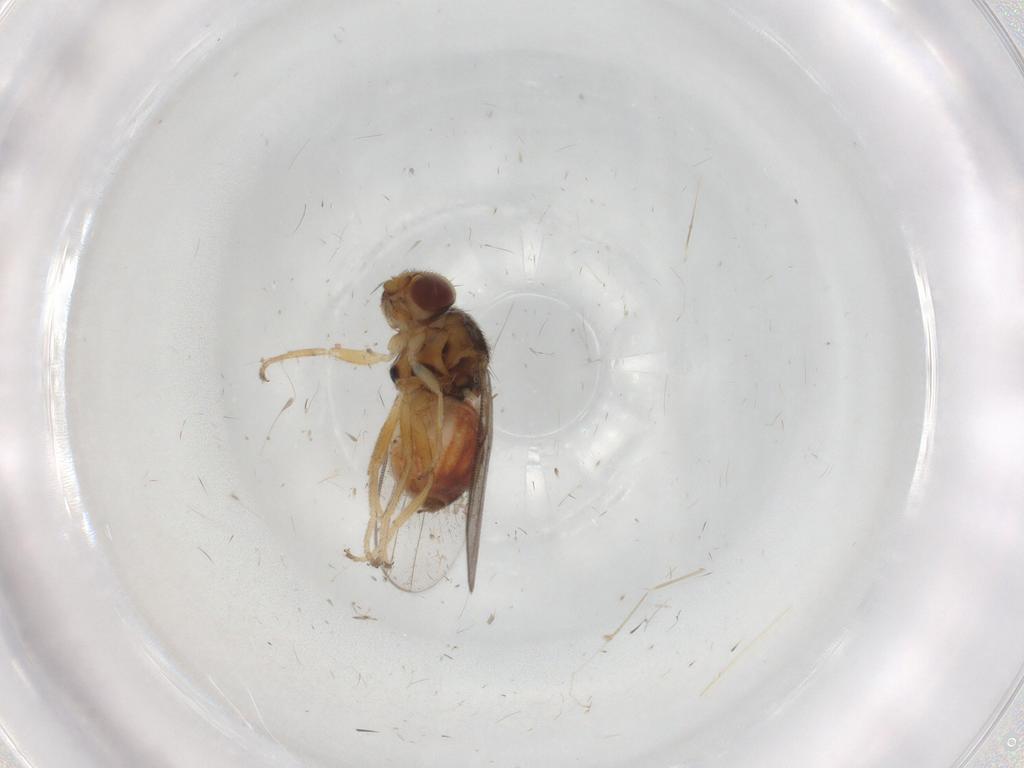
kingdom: Animalia
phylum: Arthropoda
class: Insecta
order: Diptera
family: Chloropidae
